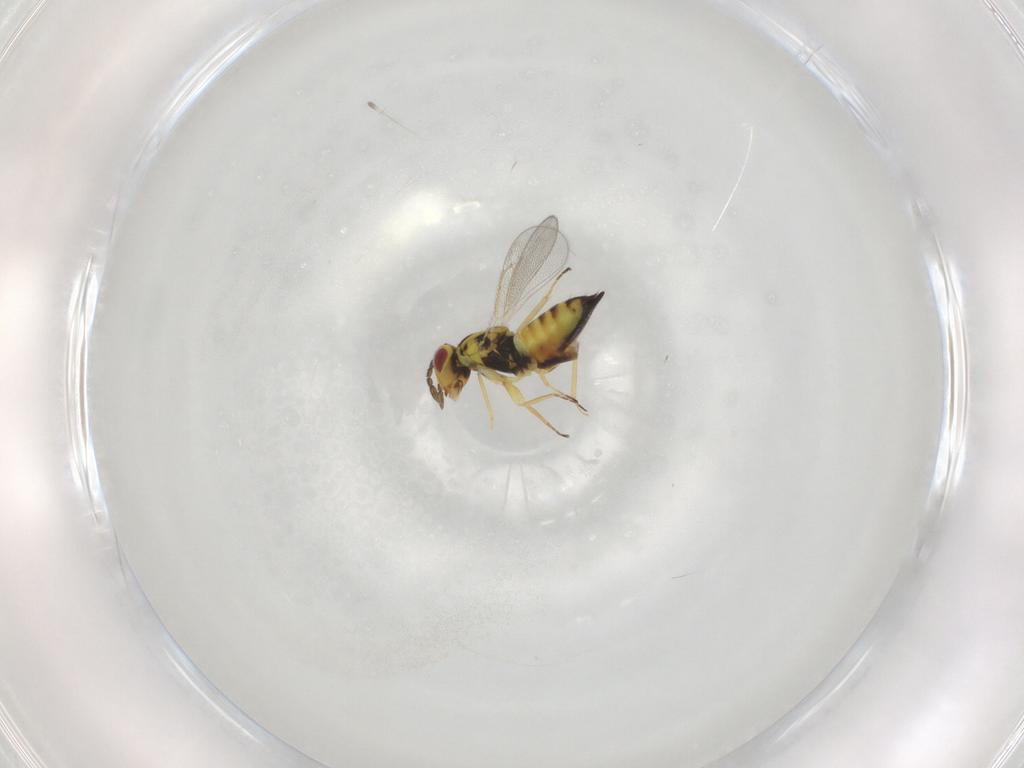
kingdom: Animalia
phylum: Arthropoda
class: Insecta
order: Hymenoptera
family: Eulophidae
